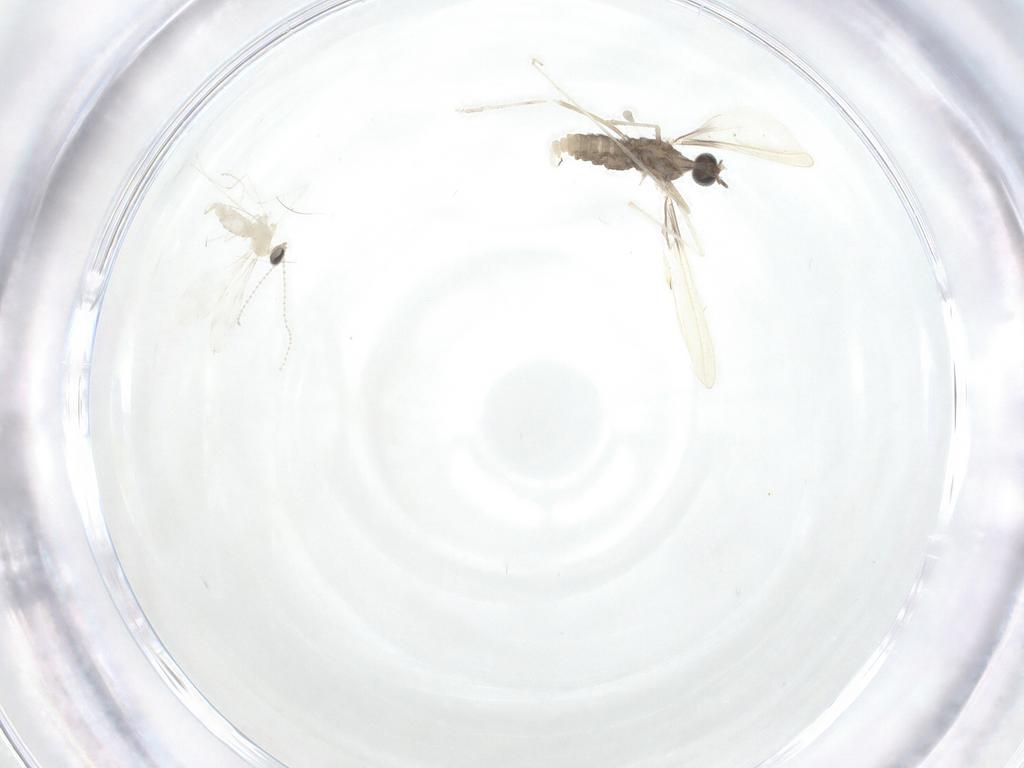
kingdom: Animalia
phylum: Arthropoda
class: Insecta
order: Diptera
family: Cecidomyiidae
